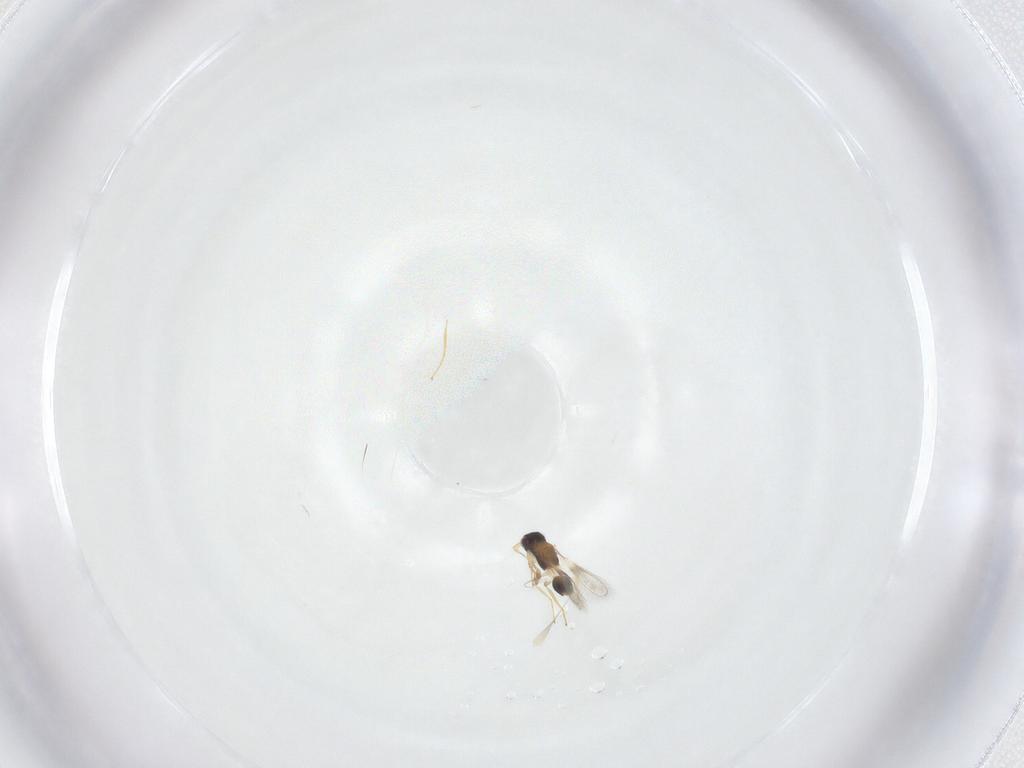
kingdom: Animalia
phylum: Arthropoda
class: Insecta
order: Hymenoptera
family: Mymaridae
